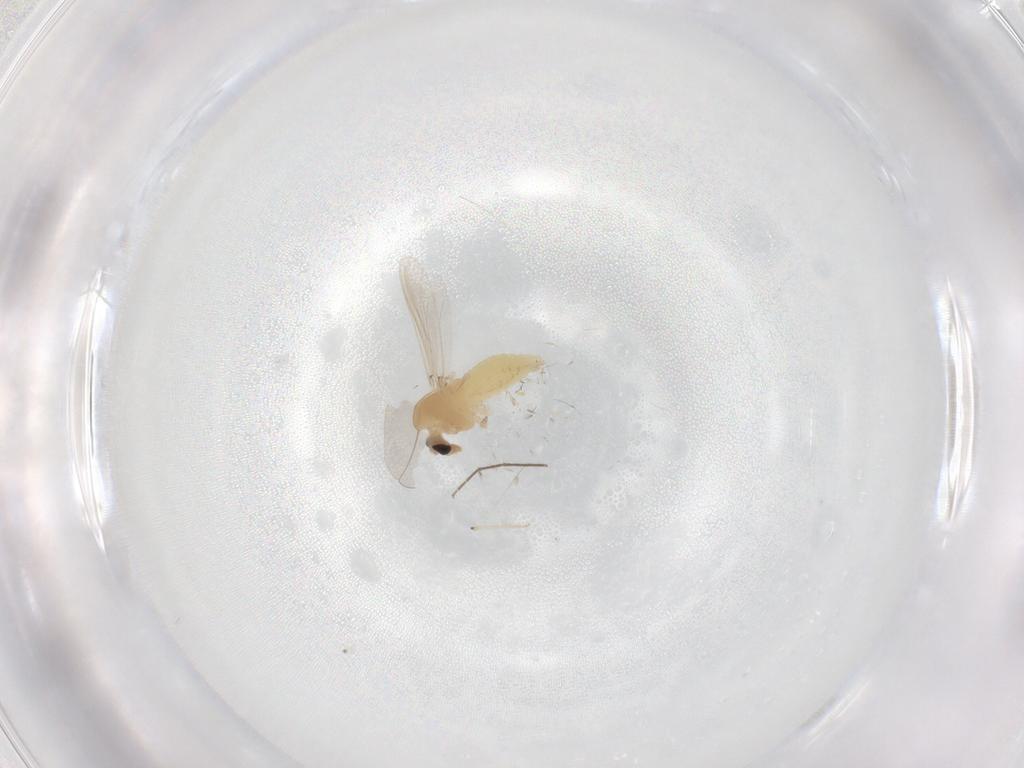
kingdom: Animalia
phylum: Arthropoda
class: Insecta
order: Diptera
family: Chironomidae
